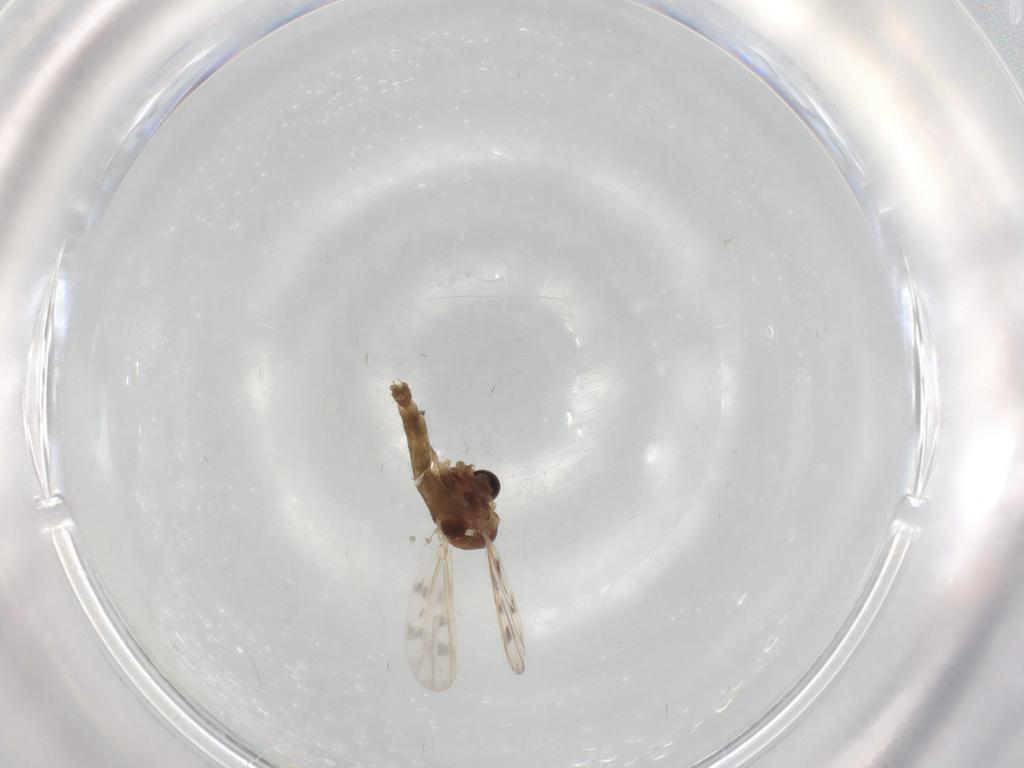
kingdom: Animalia
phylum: Arthropoda
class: Insecta
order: Diptera
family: Chironomidae
